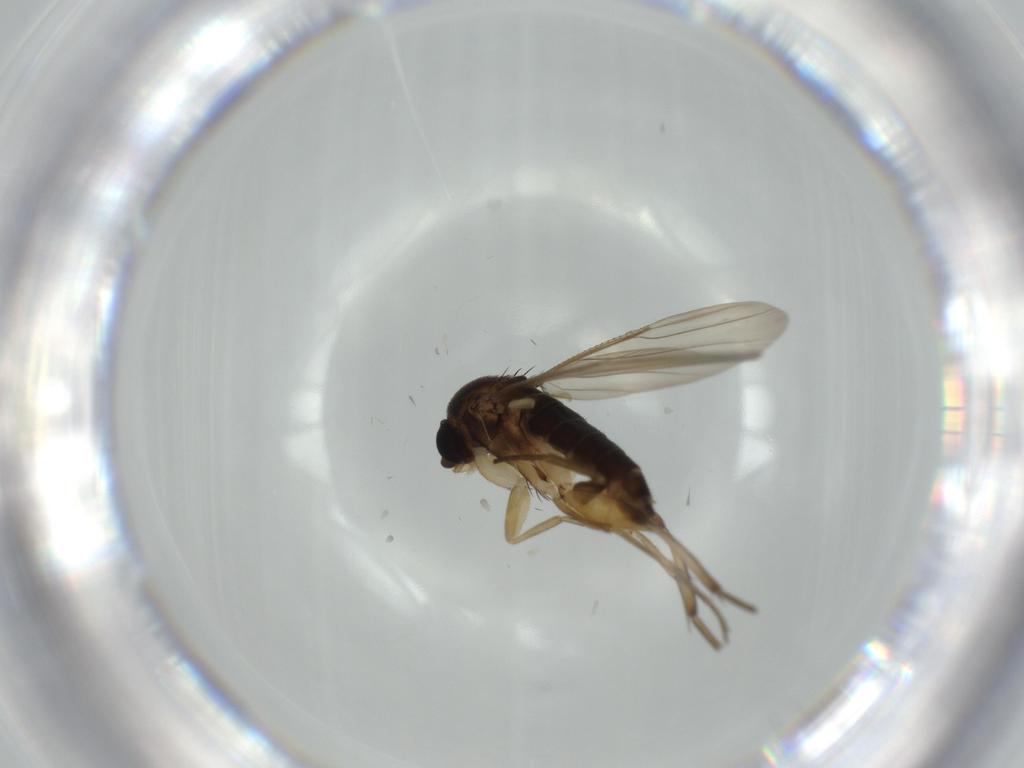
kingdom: Animalia
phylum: Arthropoda
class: Insecta
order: Diptera
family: Phoridae
